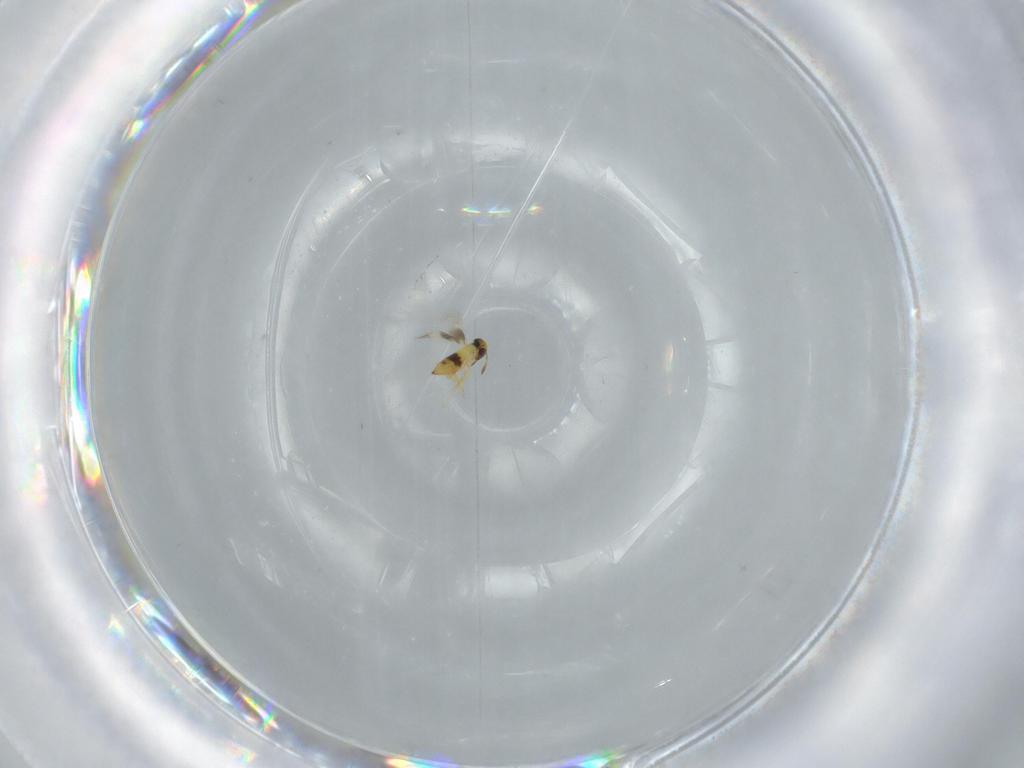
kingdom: Animalia
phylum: Arthropoda
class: Insecta
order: Hymenoptera
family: Signiphoridae
